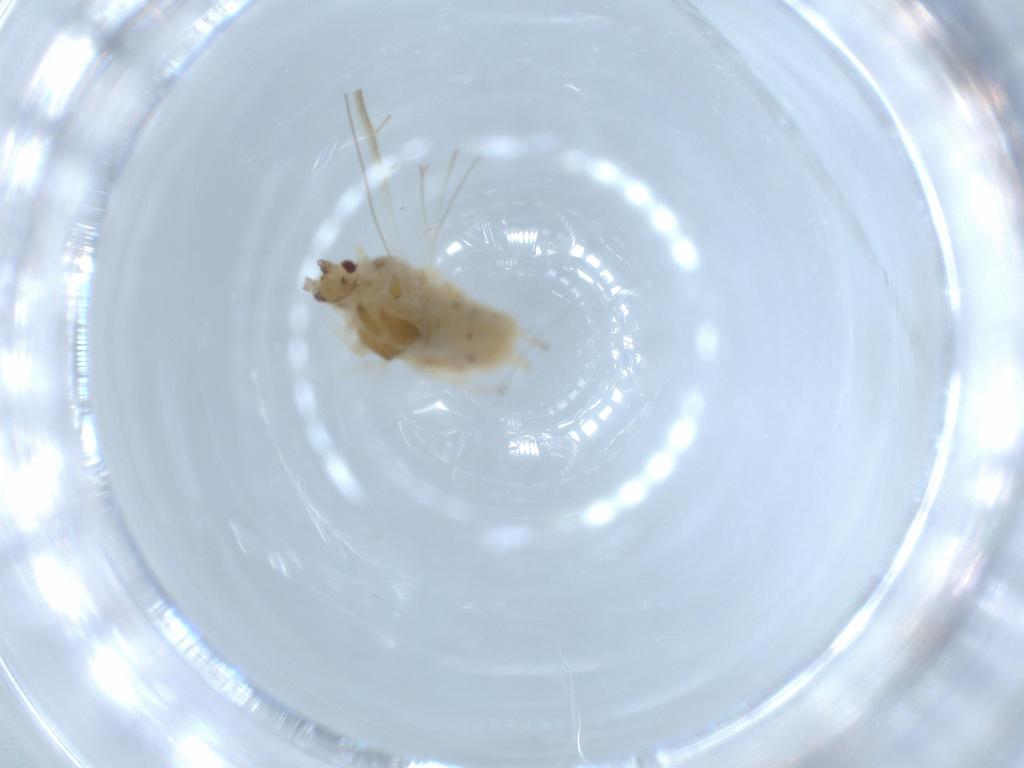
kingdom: Animalia
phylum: Arthropoda
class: Insecta
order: Hemiptera
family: Aphididae
